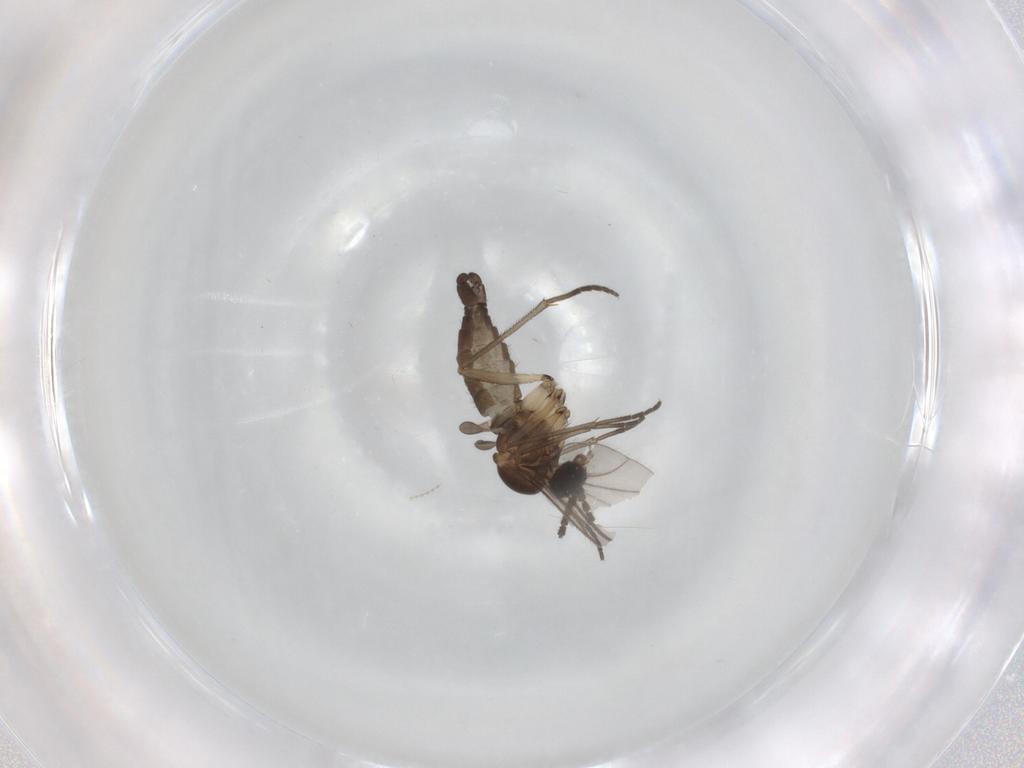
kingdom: Animalia
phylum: Arthropoda
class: Insecta
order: Diptera
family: Sciaridae
